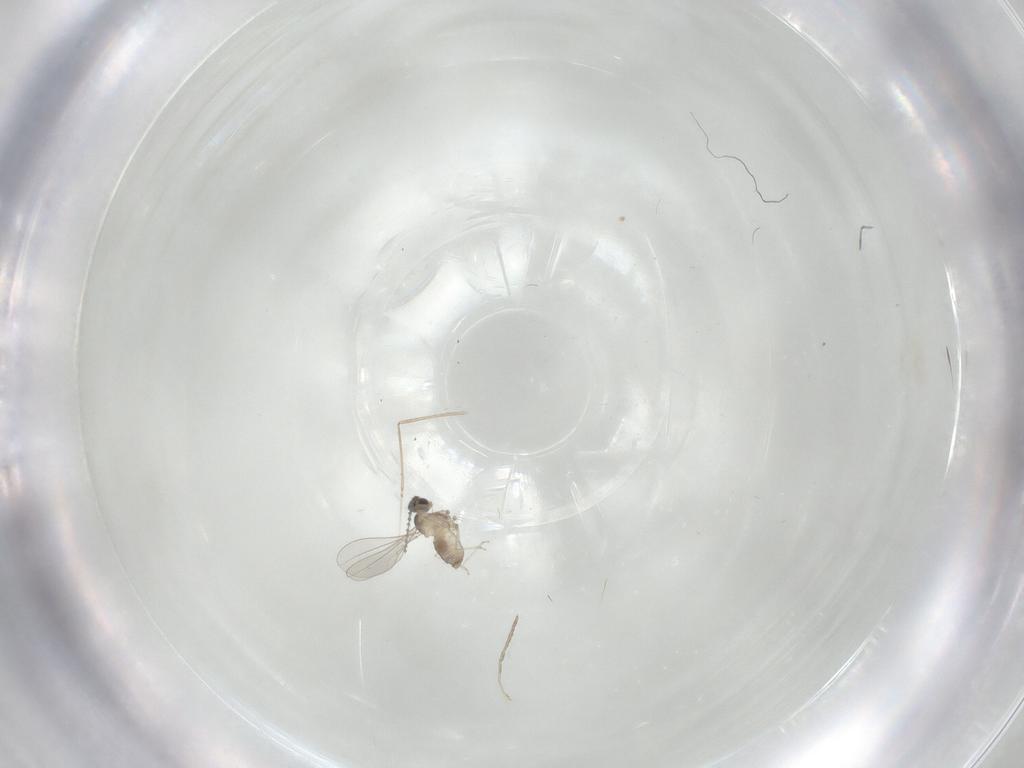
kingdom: Animalia
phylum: Arthropoda
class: Insecta
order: Diptera
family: Cecidomyiidae
